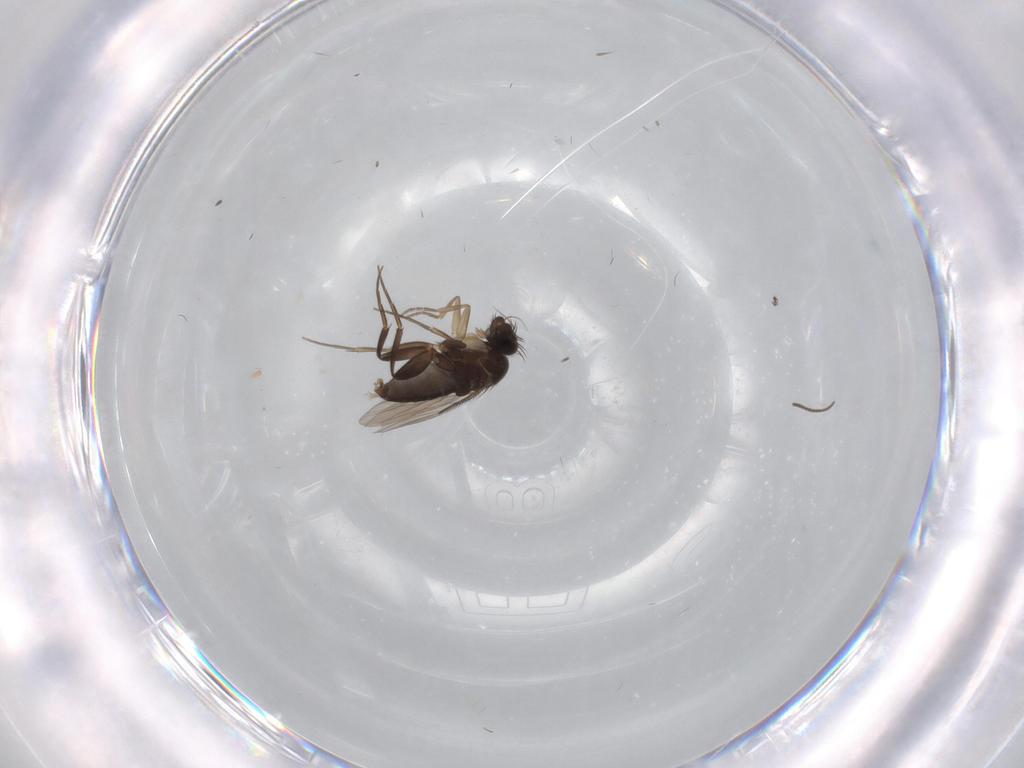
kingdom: Animalia
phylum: Arthropoda
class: Insecta
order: Diptera
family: Phoridae
